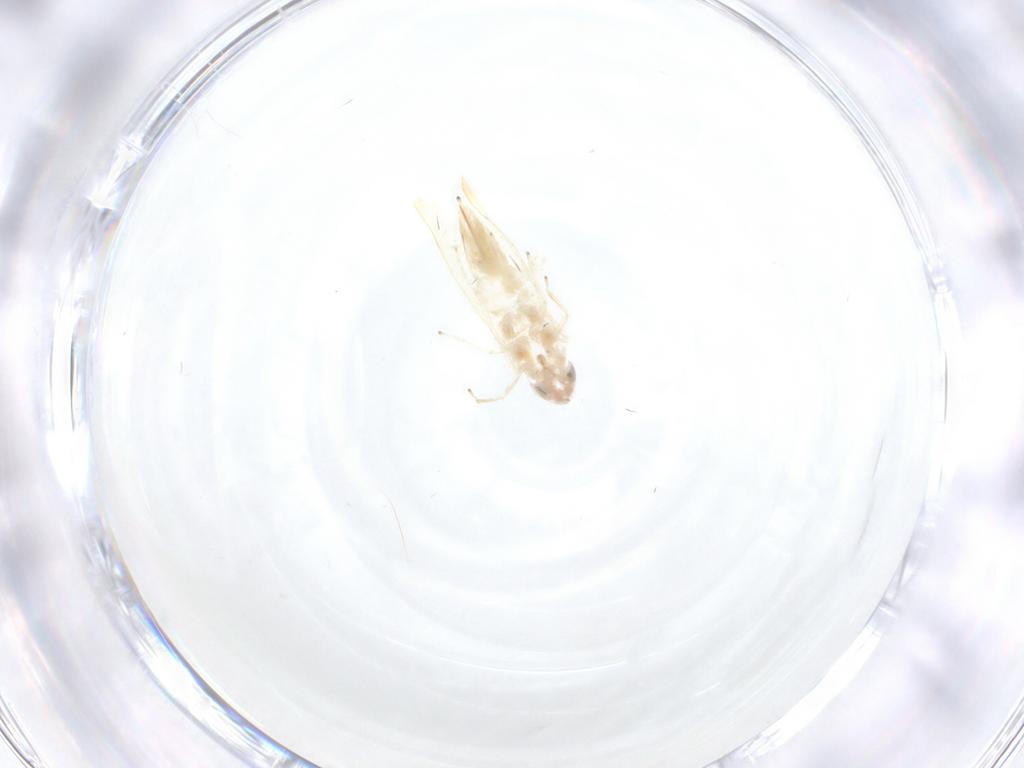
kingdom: Animalia
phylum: Arthropoda
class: Insecta
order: Hemiptera
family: Cicadellidae
